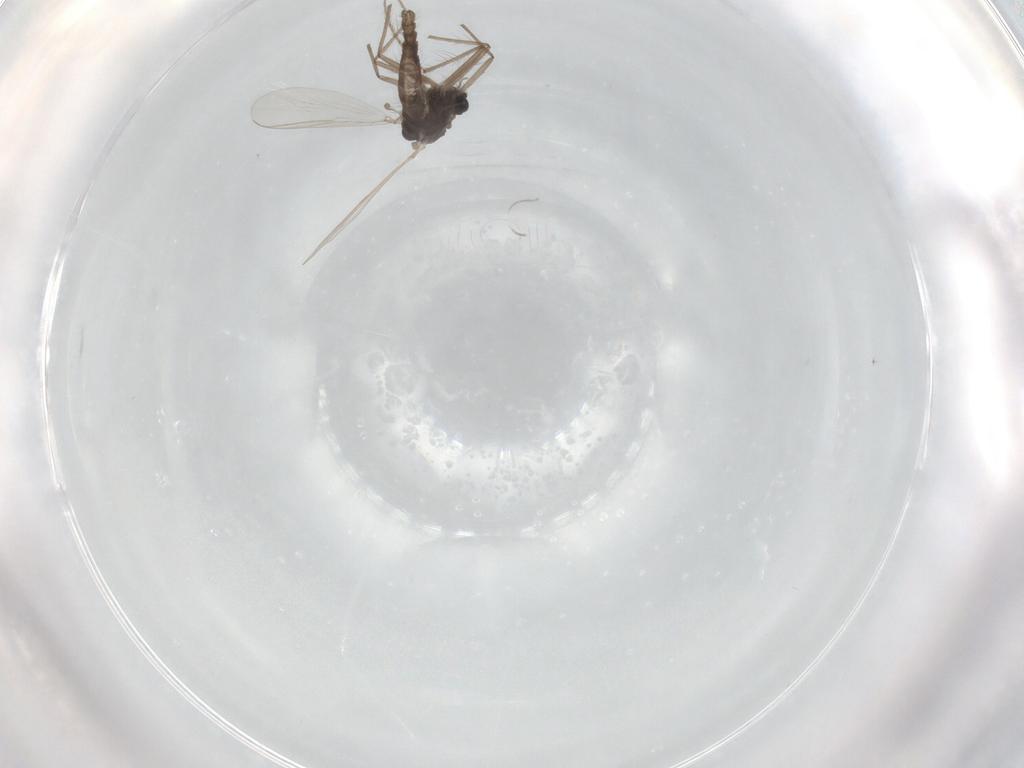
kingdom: Animalia
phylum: Arthropoda
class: Insecta
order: Diptera
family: Chironomidae
